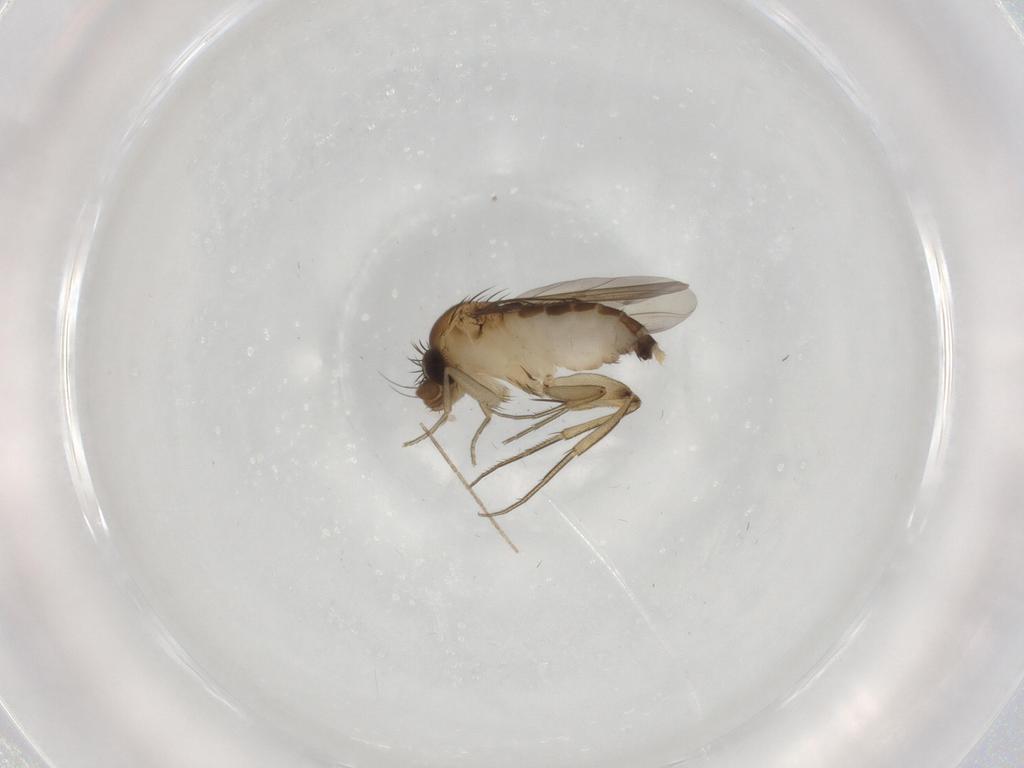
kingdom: Animalia
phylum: Arthropoda
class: Insecta
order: Diptera
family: Phoridae
